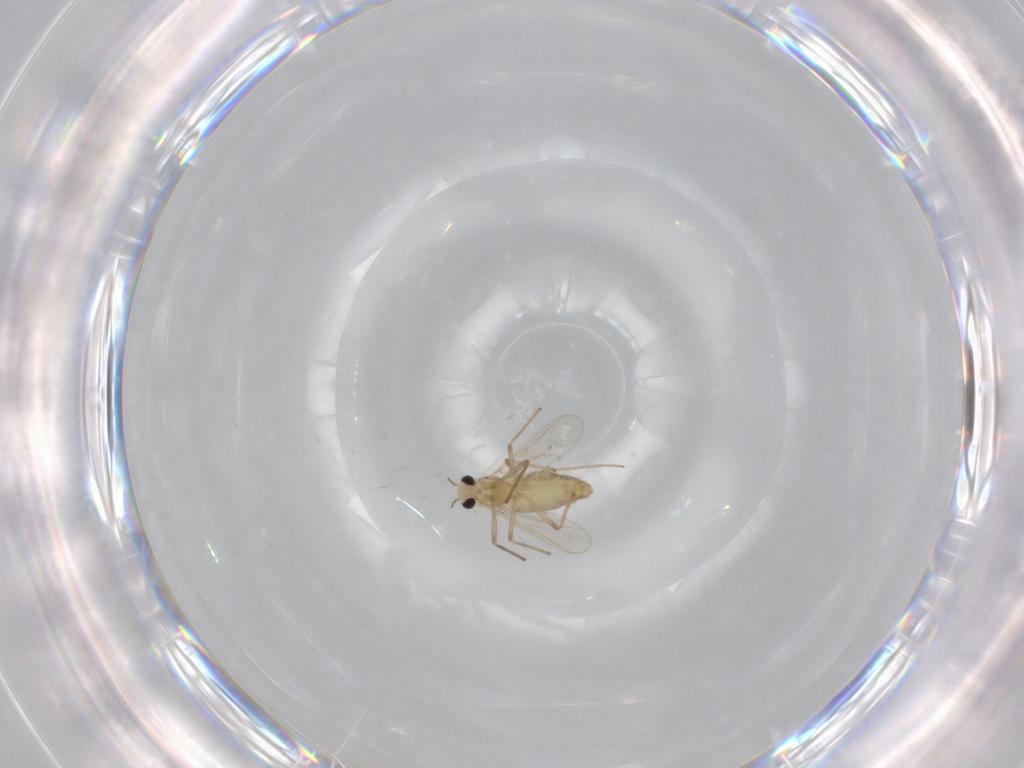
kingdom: Animalia
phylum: Arthropoda
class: Insecta
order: Diptera
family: Chironomidae
